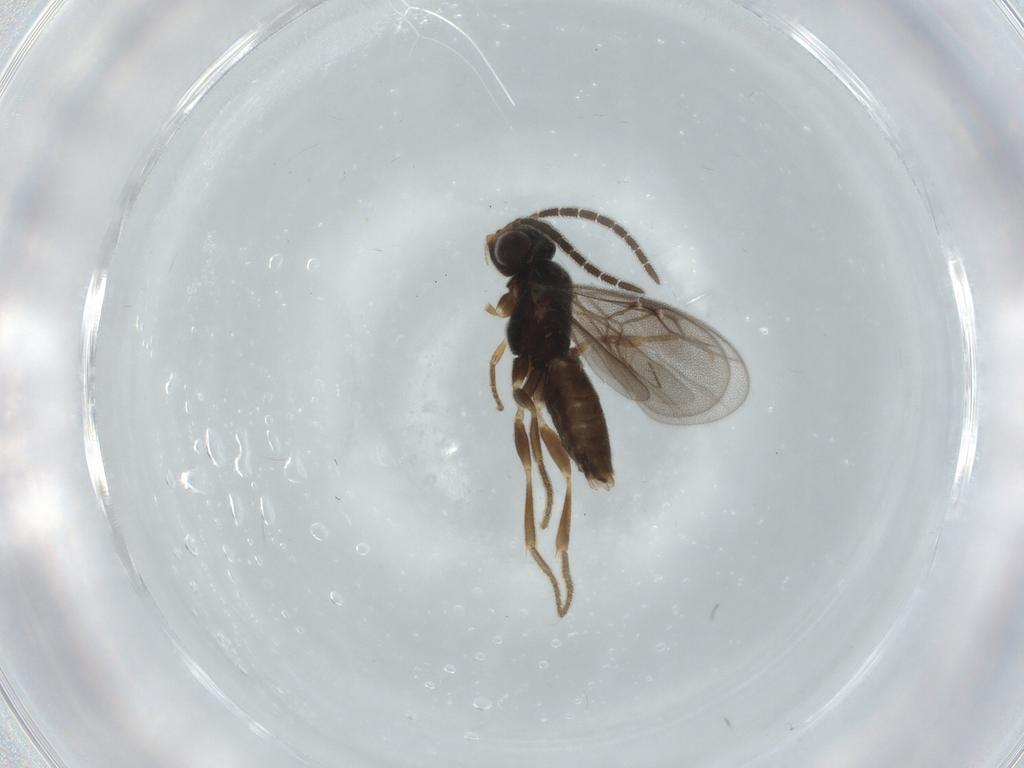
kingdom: Animalia
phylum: Arthropoda
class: Insecta
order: Hymenoptera
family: Dryinidae
